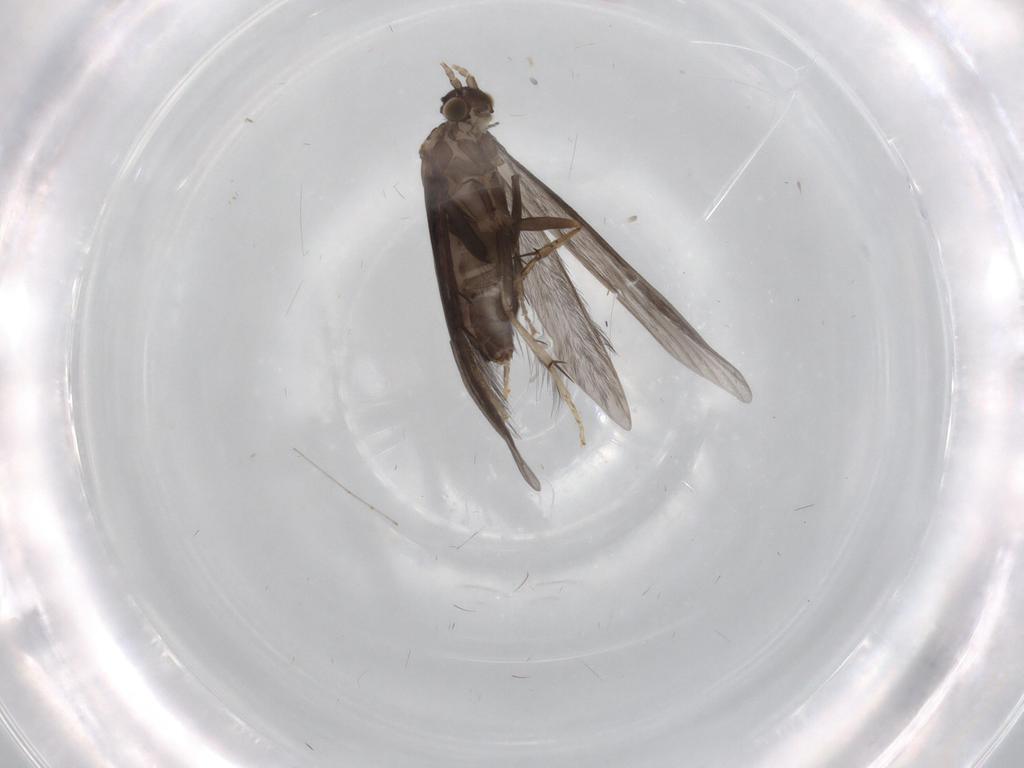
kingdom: Animalia
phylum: Arthropoda
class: Insecta
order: Trichoptera
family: Glossosomatidae
